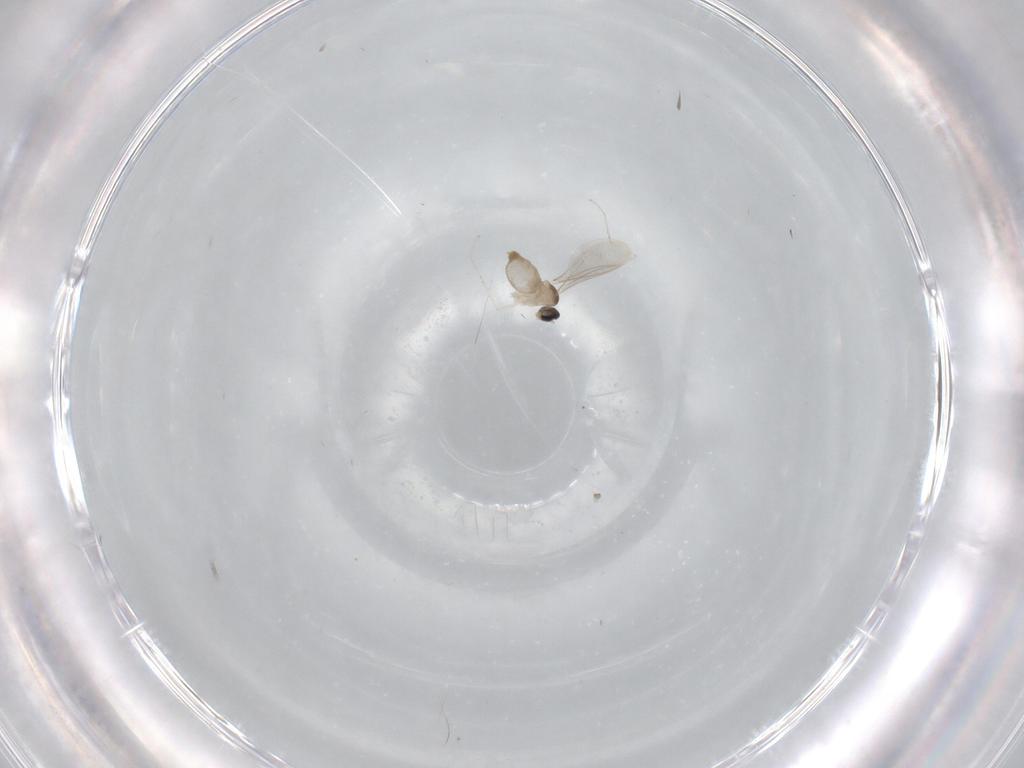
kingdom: Animalia
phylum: Arthropoda
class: Insecta
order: Diptera
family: Cecidomyiidae
